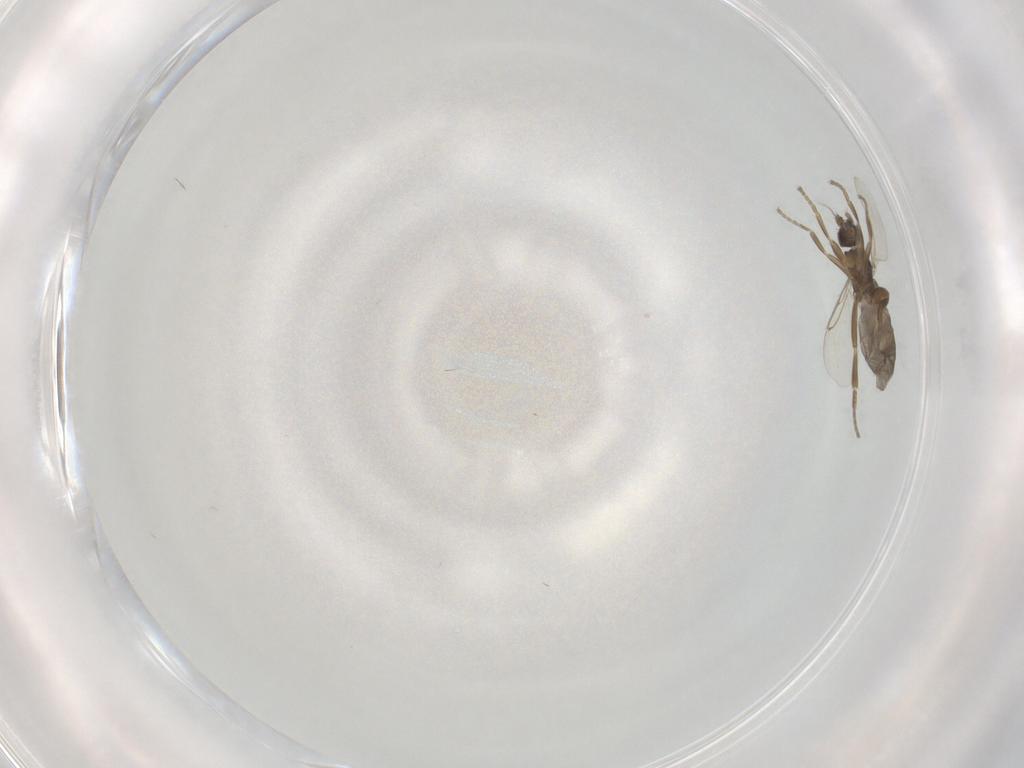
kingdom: Animalia
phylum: Arthropoda
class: Insecta
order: Diptera
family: Phoridae
